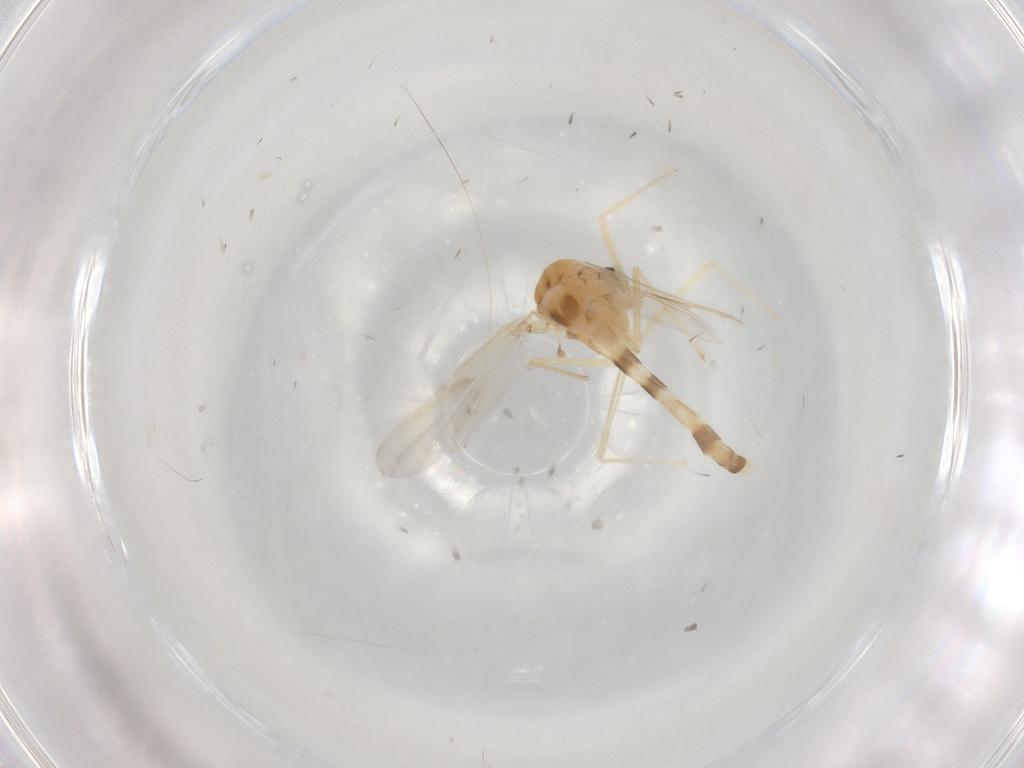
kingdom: Animalia
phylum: Arthropoda
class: Insecta
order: Diptera
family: Chironomidae
